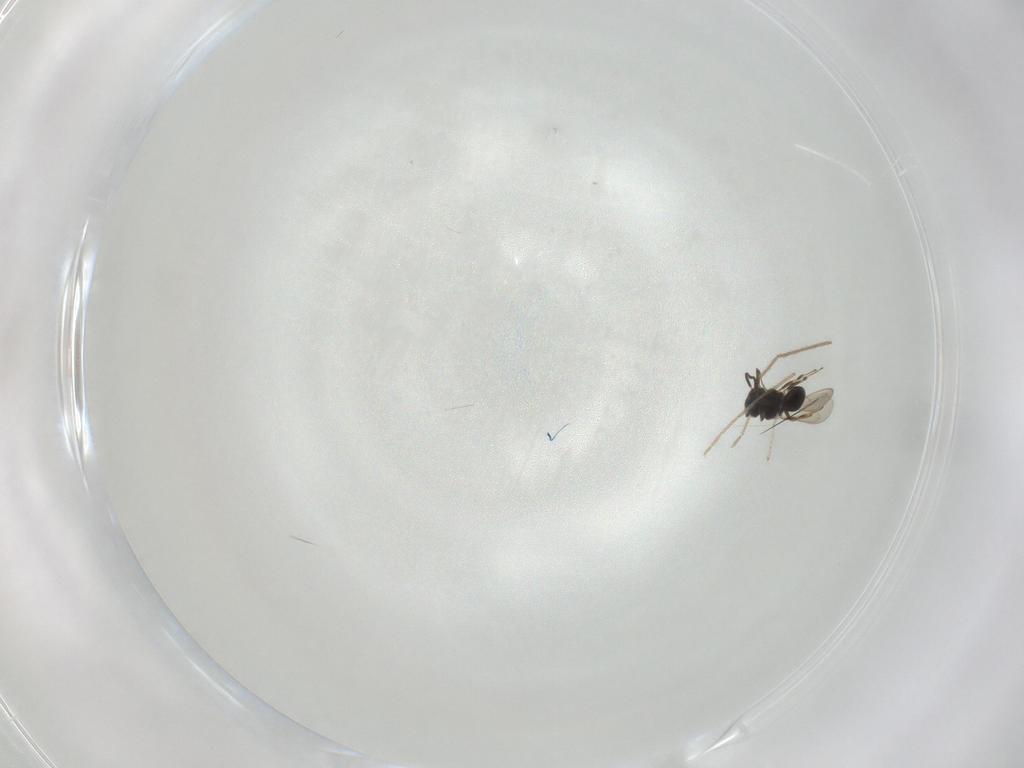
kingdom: Animalia
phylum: Arthropoda
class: Insecta
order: Hymenoptera
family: Scelionidae
